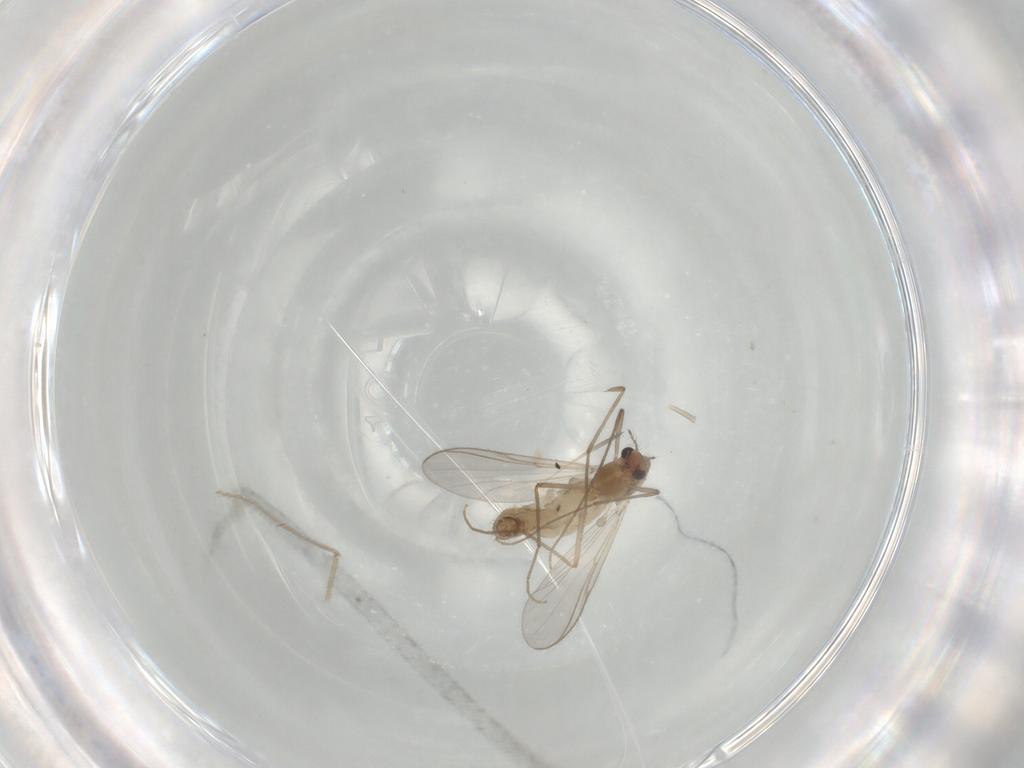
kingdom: Animalia
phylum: Arthropoda
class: Insecta
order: Diptera
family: Chironomidae
